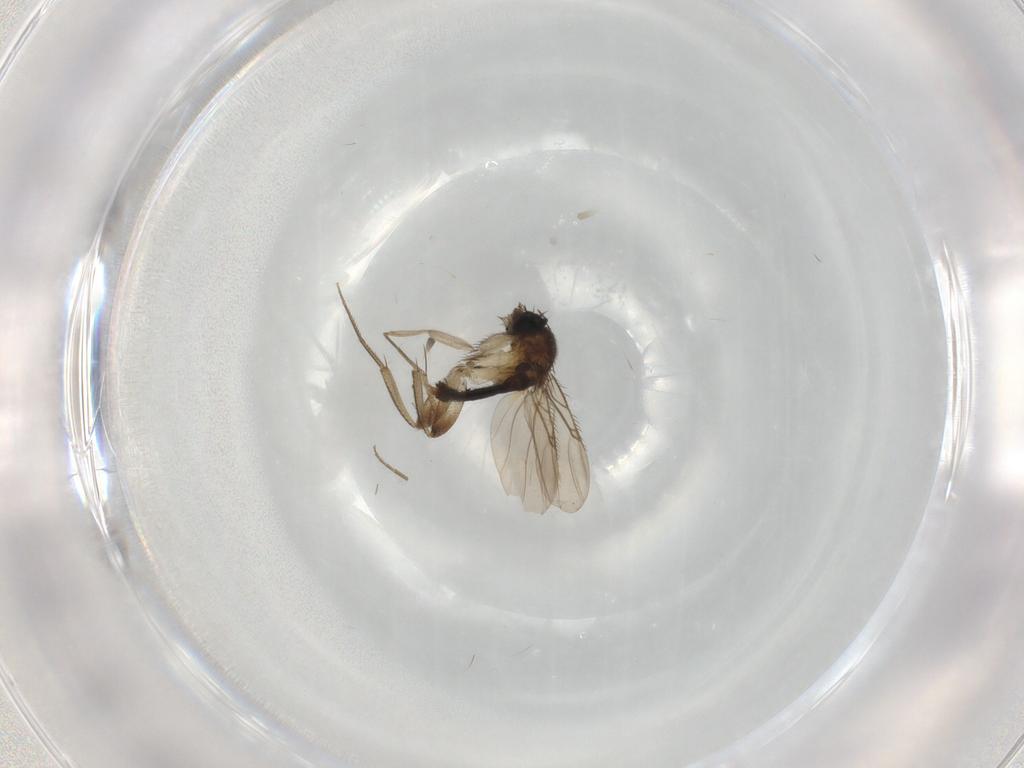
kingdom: Animalia
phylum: Arthropoda
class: Insecta
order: Diptera
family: Phoridae
